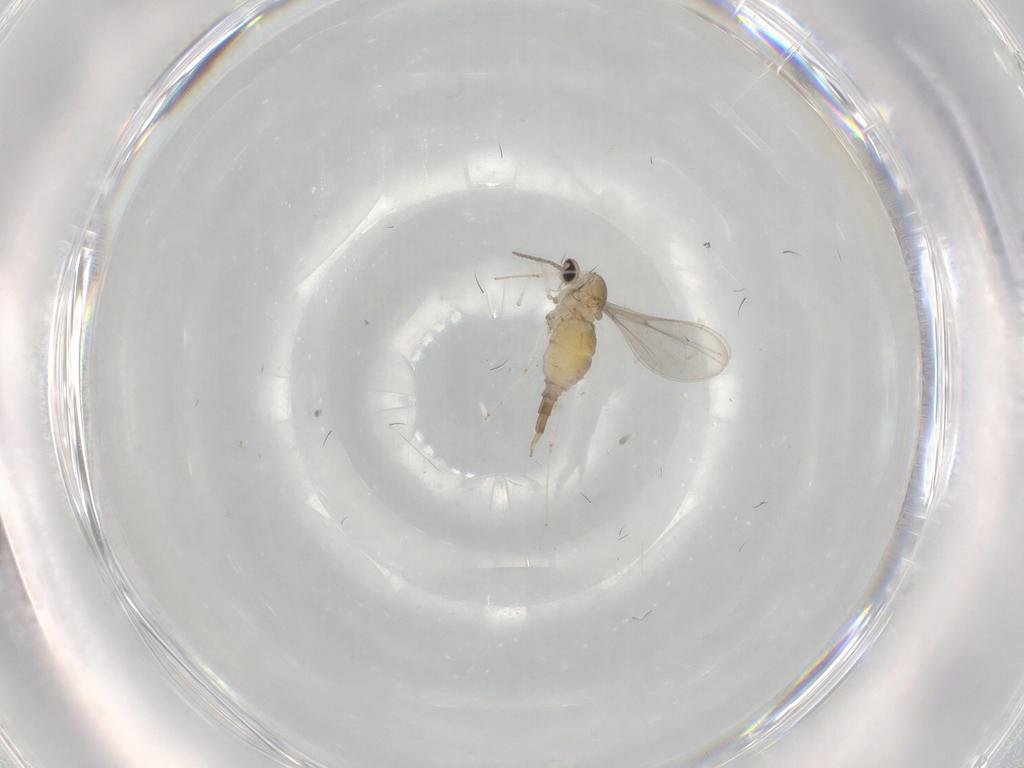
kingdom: Animalia
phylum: Arthropoda
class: Insecta
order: Diptera
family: Cecidomyiidae
